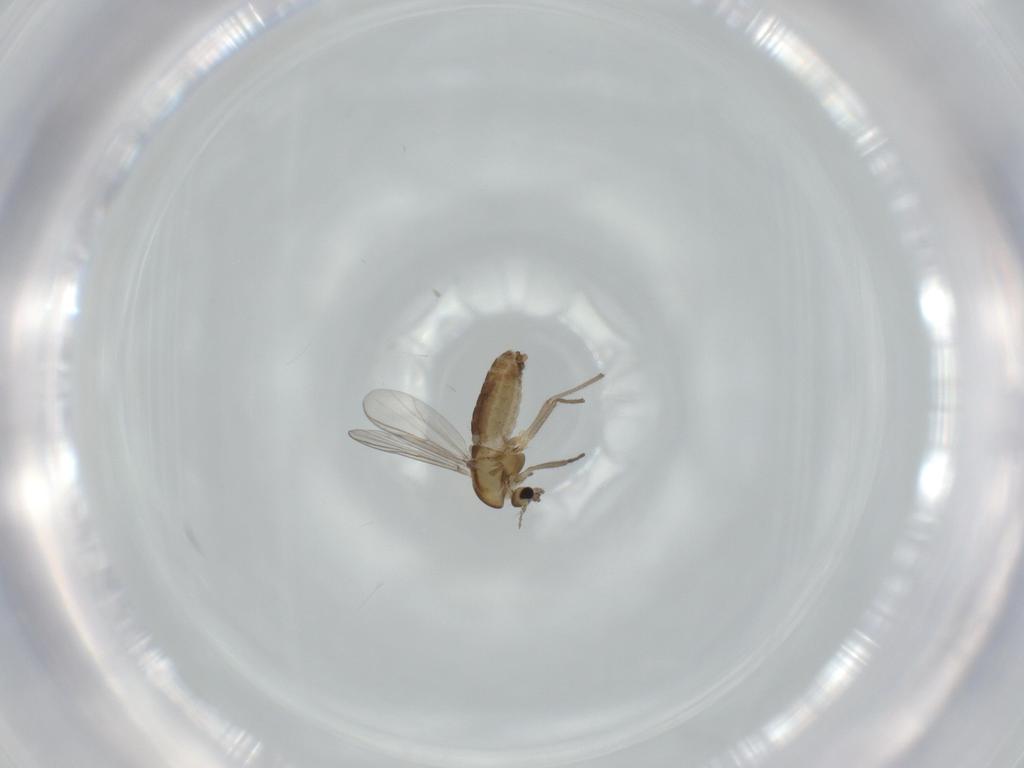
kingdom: Animalia
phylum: Arthropoda
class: Insecta
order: Diptera
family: Chironomidae
